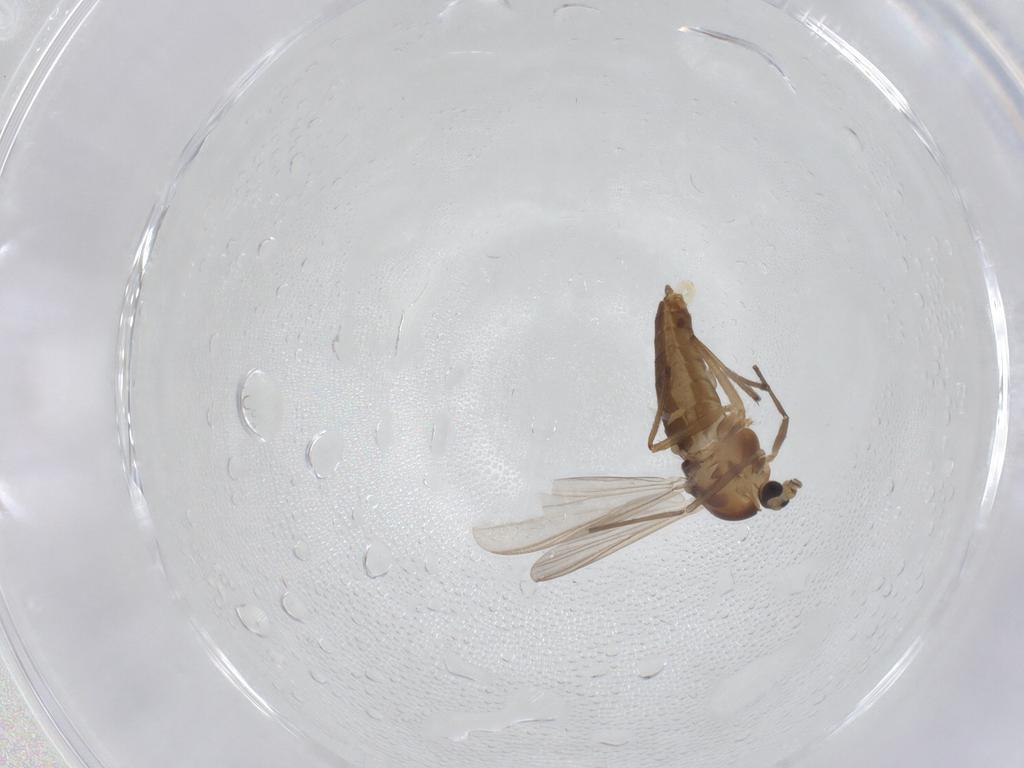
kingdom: Animalia
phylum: Arthropoda
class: Insecta
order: Diptera
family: Chironomidae
